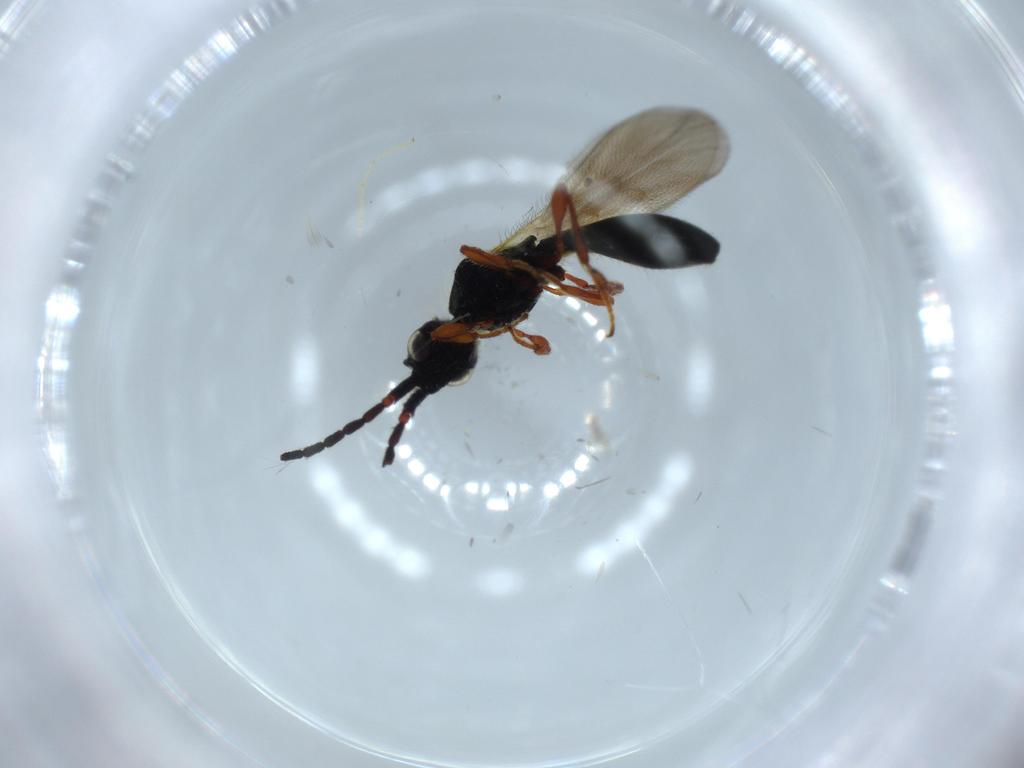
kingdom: Animalia
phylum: Arthropoda
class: Insecta
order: Hymenoptera
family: Diapriidae
